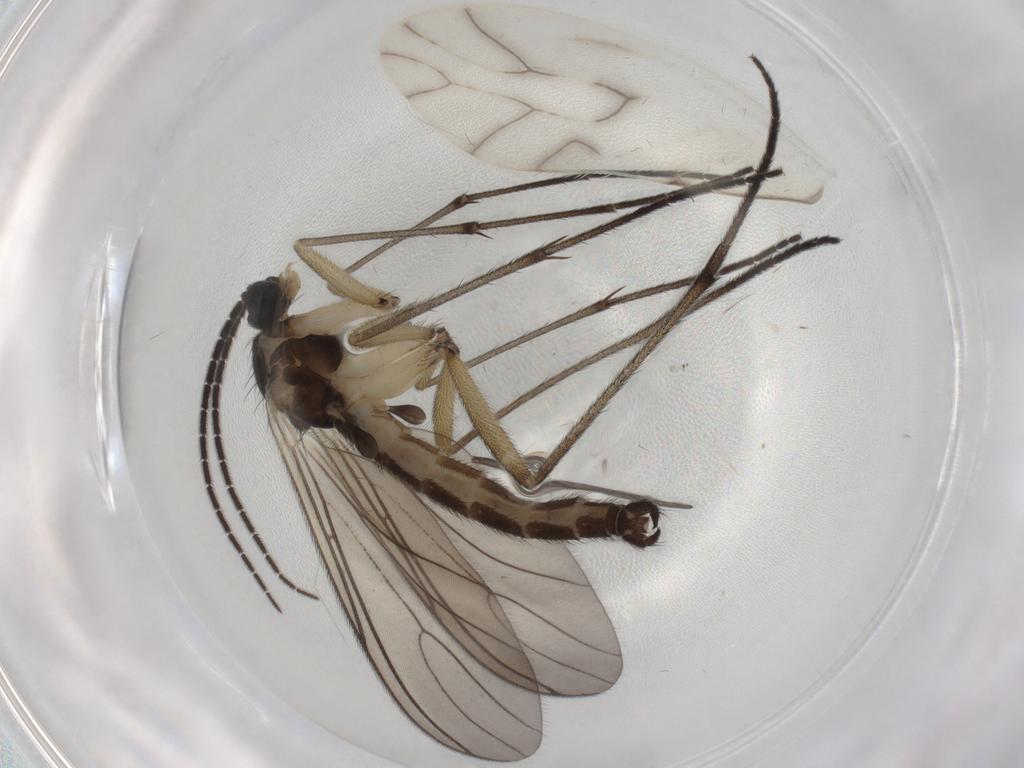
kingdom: Animalia
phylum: Arthropoda
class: Insecta
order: Diptera
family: Sciaridae
